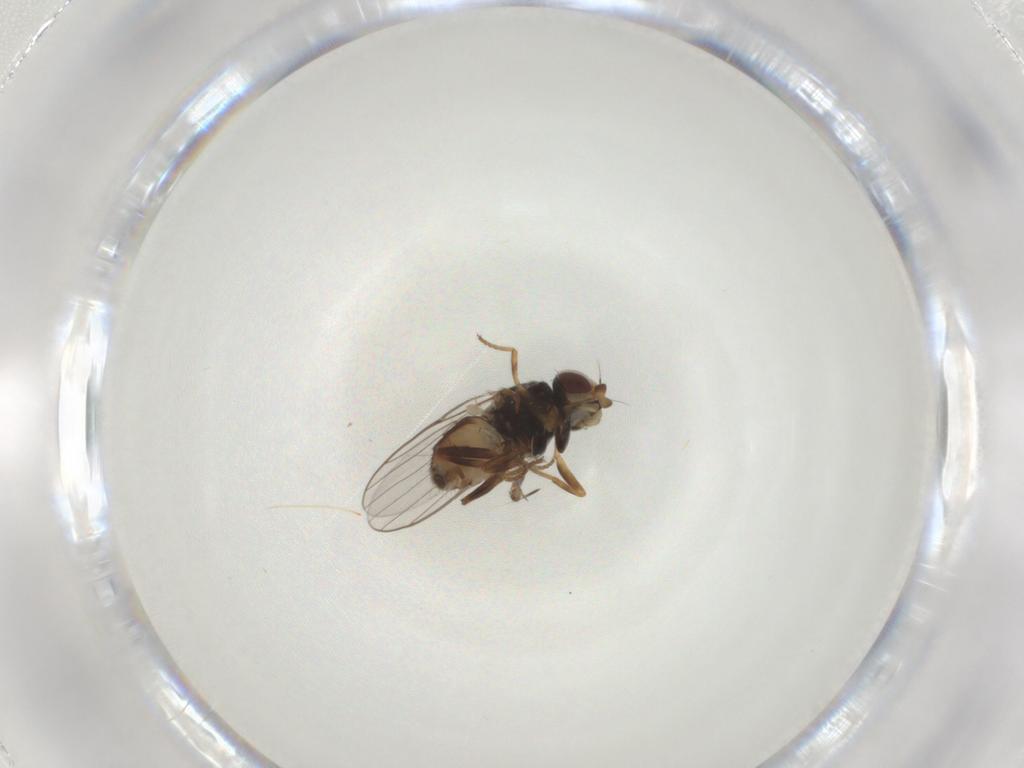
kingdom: Animalia
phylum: Arthropoda
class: Insecta
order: Diptera
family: Chloropidae
